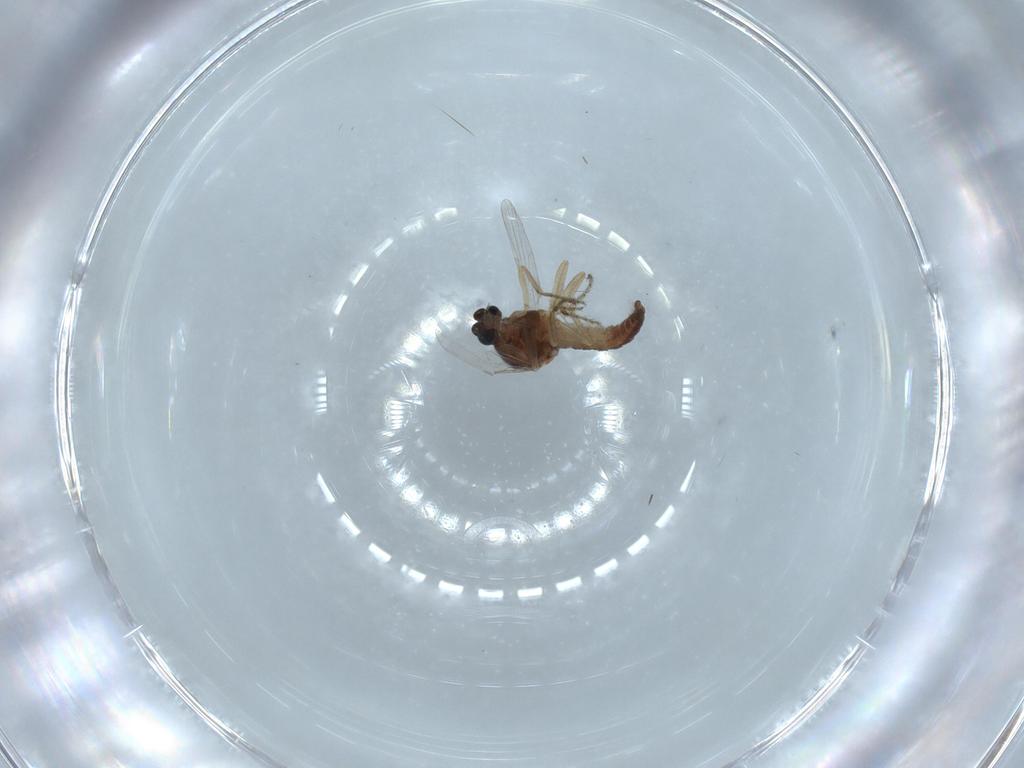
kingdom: Animalia
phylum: Arthropoda
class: Insecta
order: Diptera
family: Ceratopogonidae
